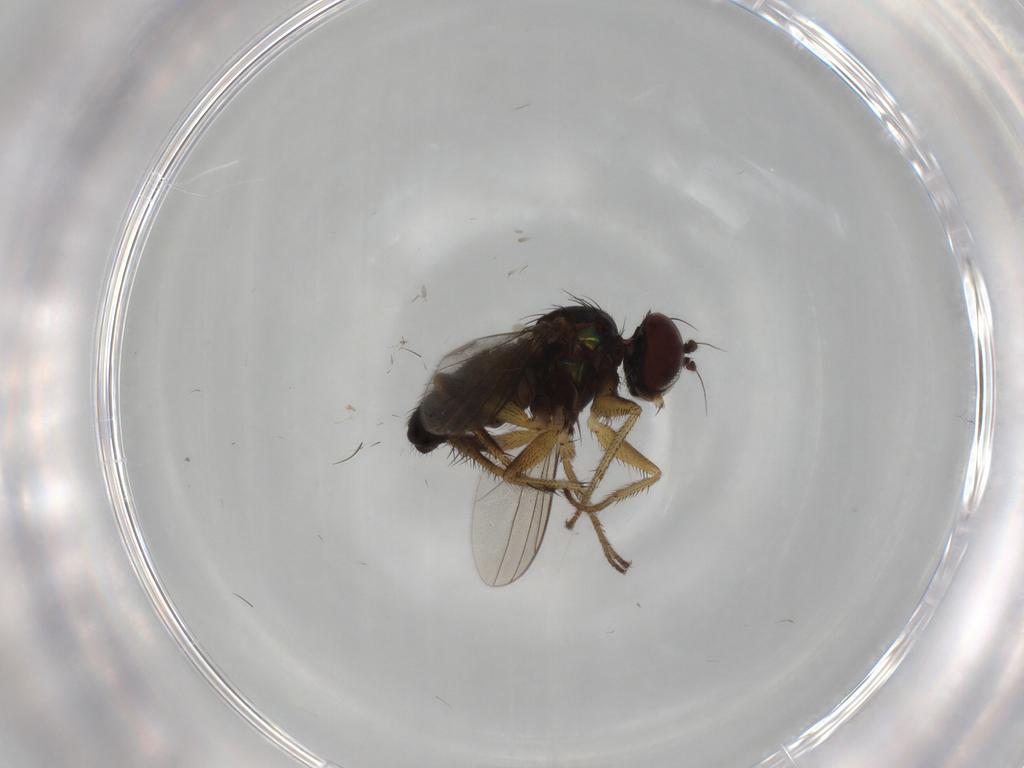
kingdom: Animalia
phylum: Arthropoda
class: Insecta
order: Diptera
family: Dolichopodidae
